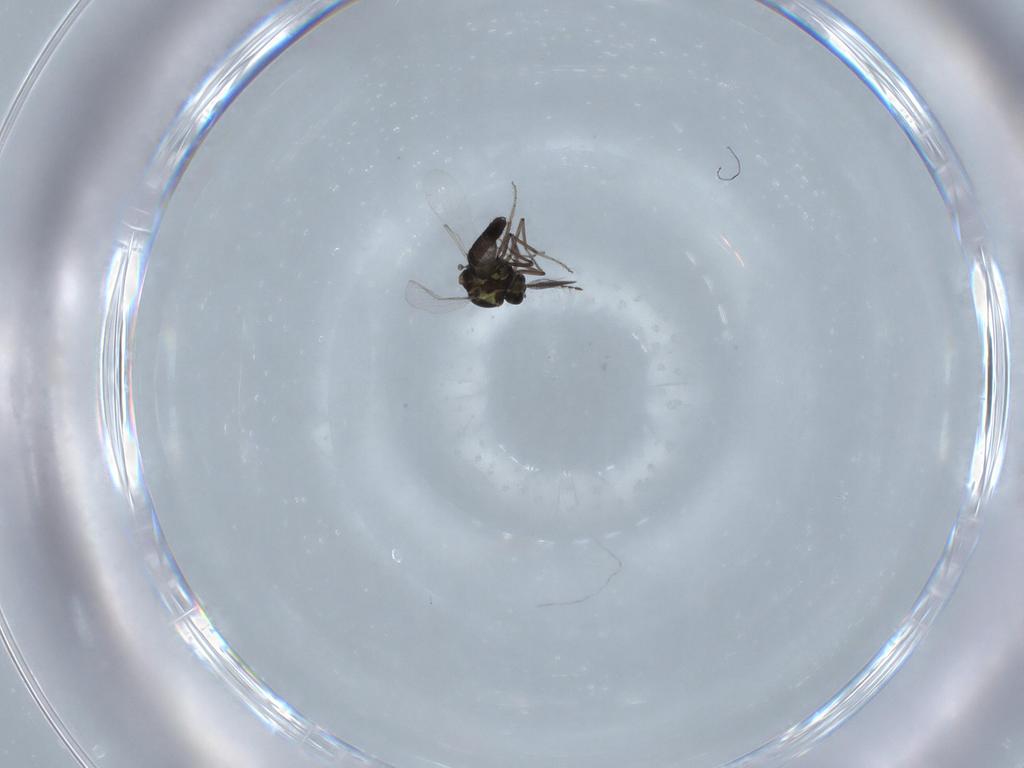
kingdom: Animalia
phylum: Arthropoda
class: Insecta
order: Diptera
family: Ceratopogonidae
